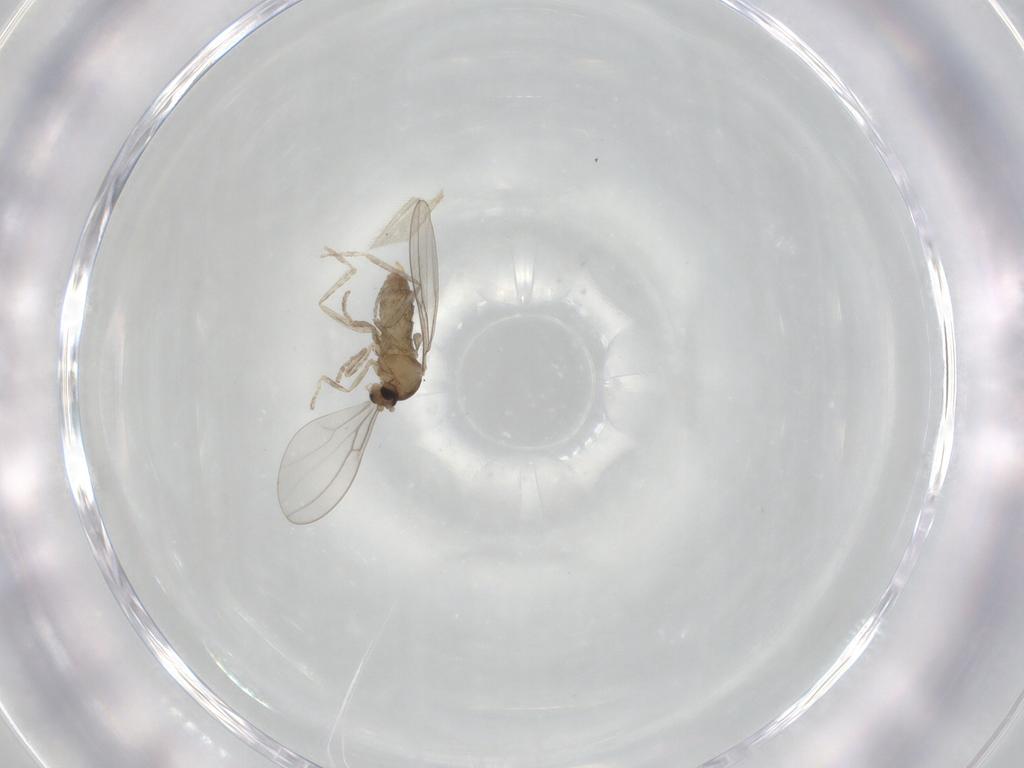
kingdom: Animalia
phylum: Arthropoda
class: Insecta
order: Diptera
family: Cecidomyiidae
